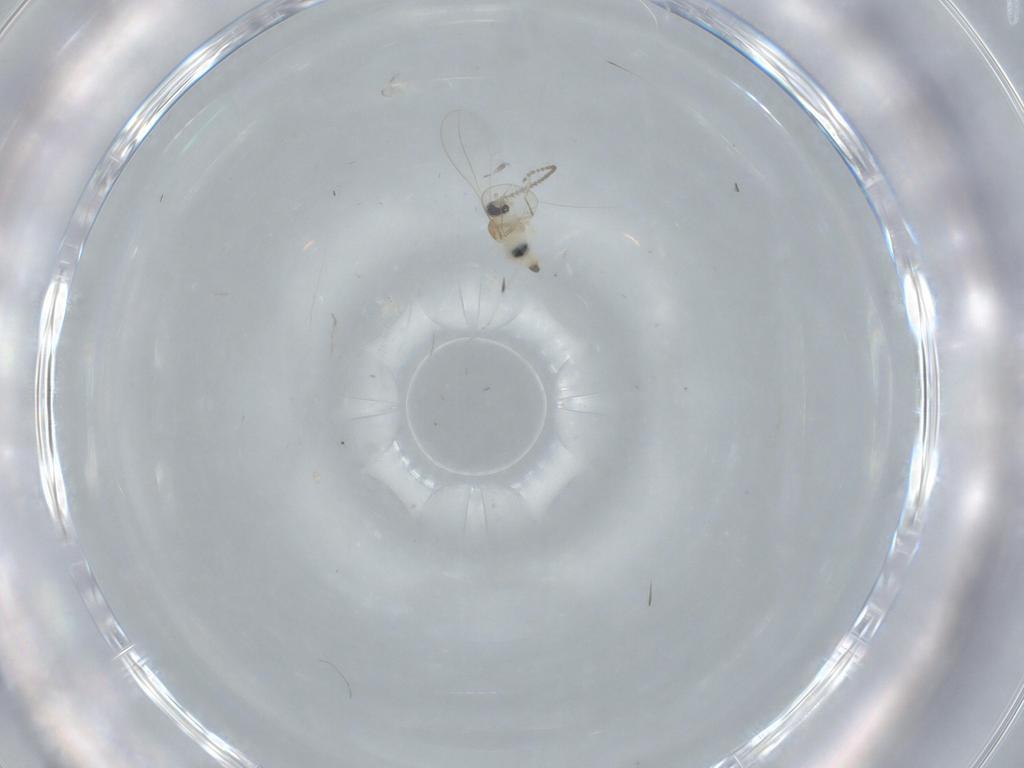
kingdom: Animalia
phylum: Arthropoda
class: Insecta
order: Diptera
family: Cecidomyiidae
